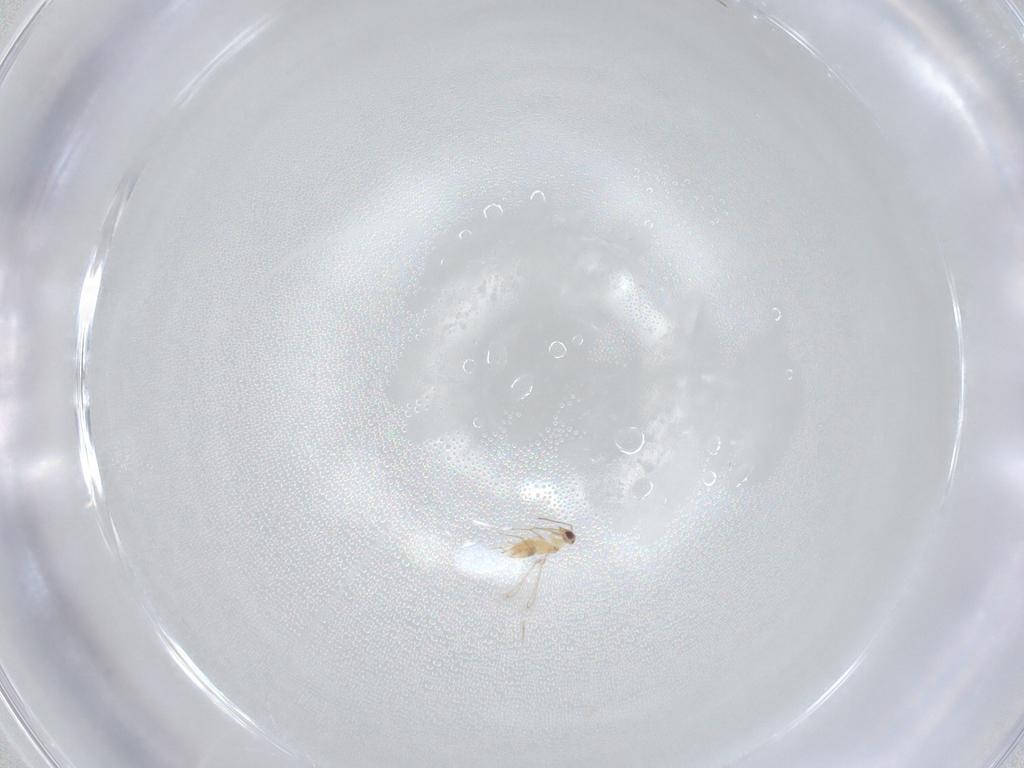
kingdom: Animalia
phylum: Arthropoda
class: Insecta
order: Hymenoptera
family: Mymaridae
